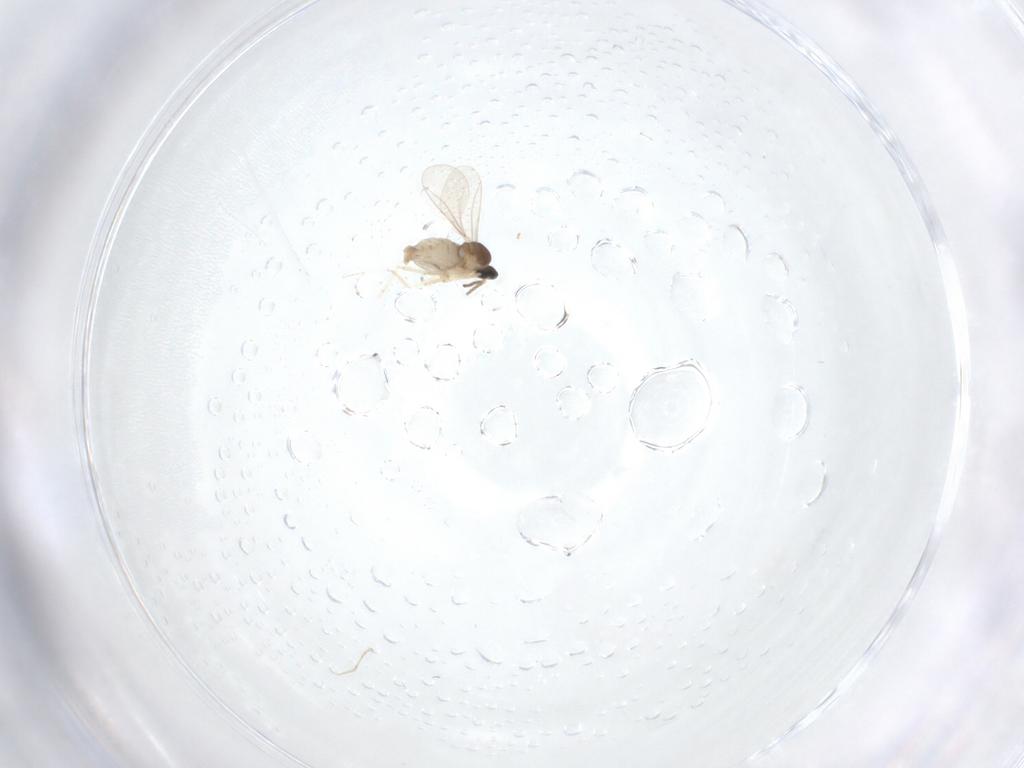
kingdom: Animalia
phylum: Arthropoda
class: Insecta
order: Diptera
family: Cecidomyiidae
